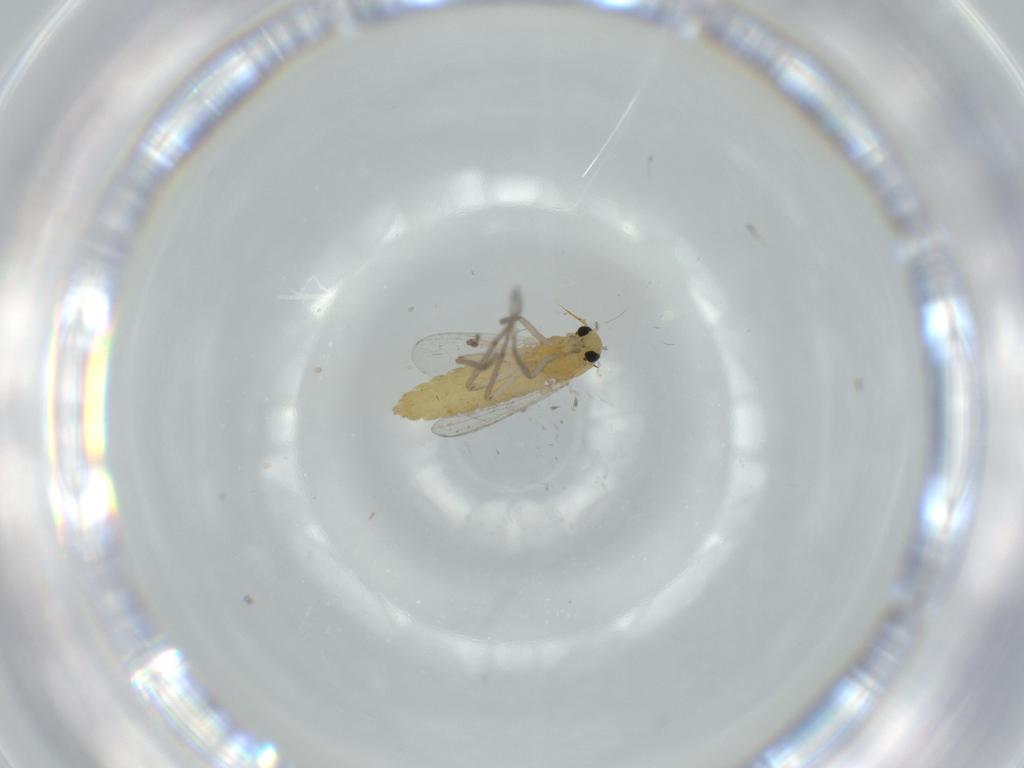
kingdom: Animalia
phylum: Arthropoda
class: Insecta
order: Diptera
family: Chironomidae
